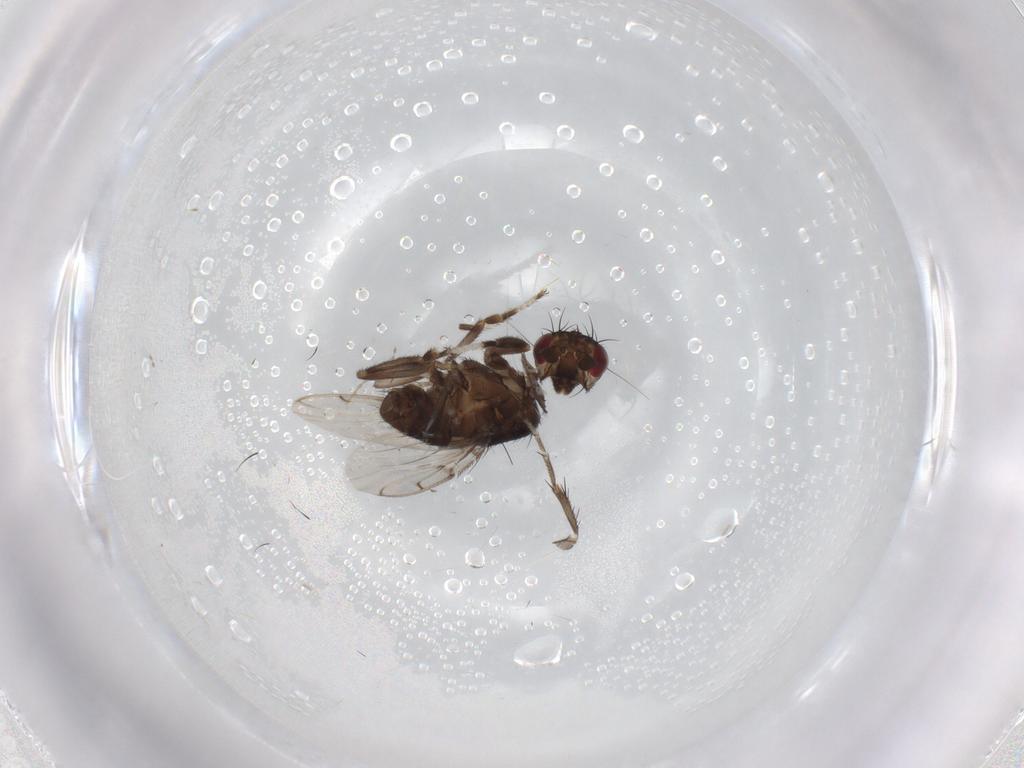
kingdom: Animalia
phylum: Arthropoda
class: Insecta
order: Diptera
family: Sphaeroceridae
